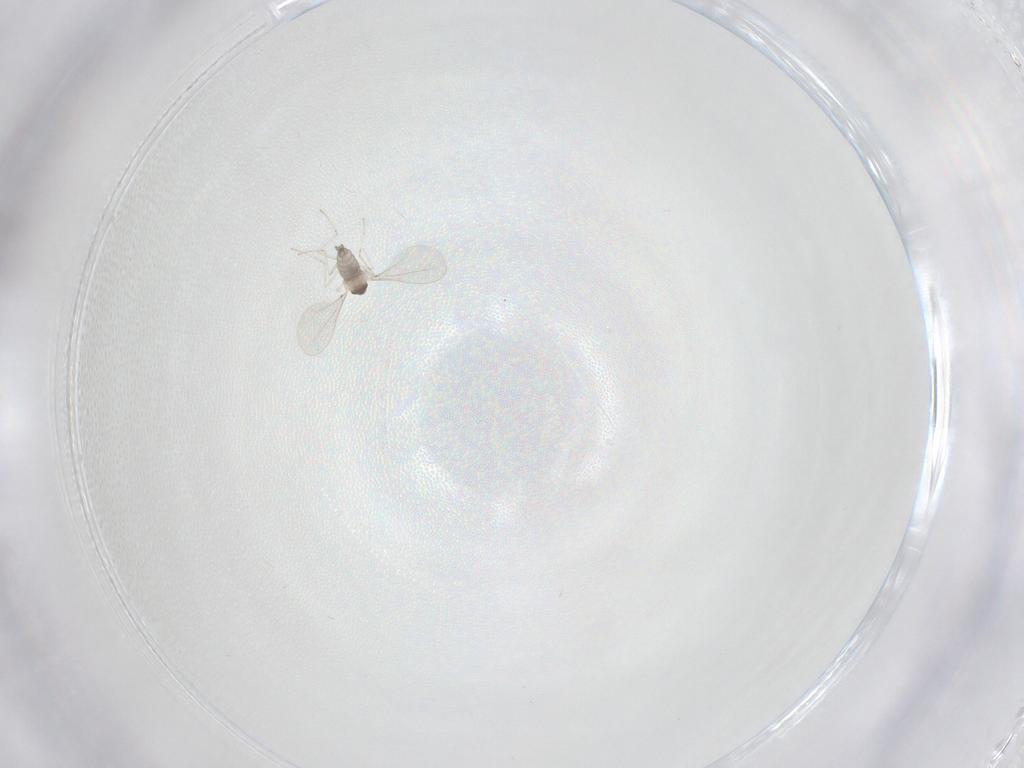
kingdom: Animalia
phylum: Arthropoda
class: Insecta
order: Diptera
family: Cecidomyiidae
